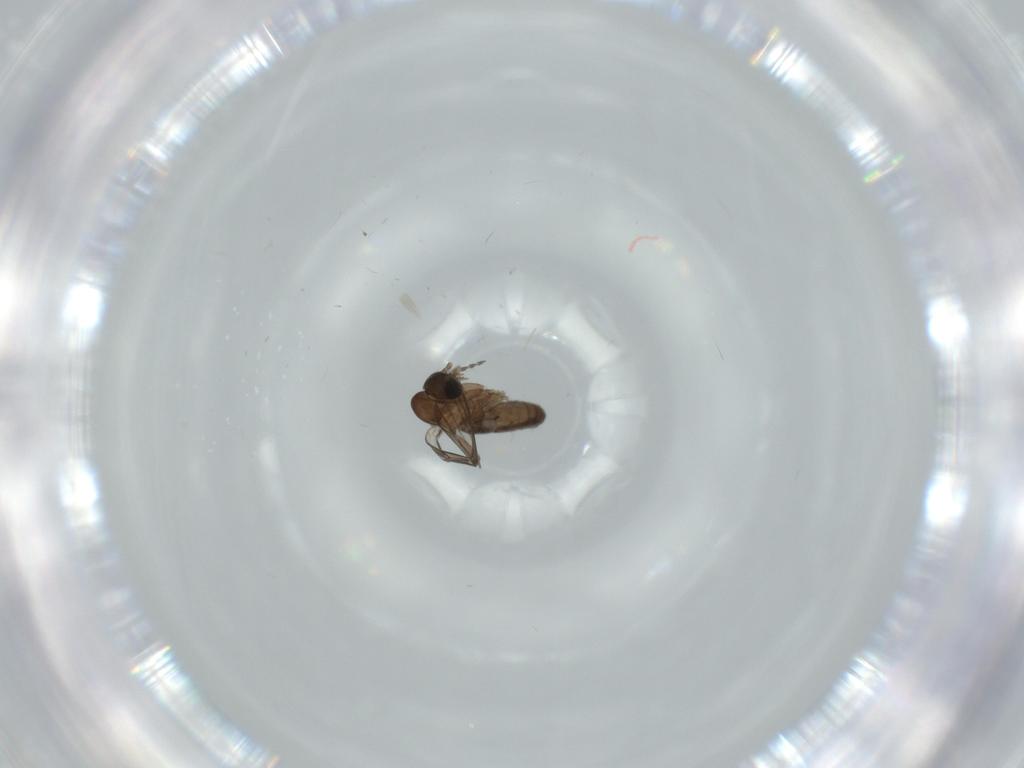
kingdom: Animalia
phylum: Arthropoda
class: Insecta
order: Diptera
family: Psychodidae
